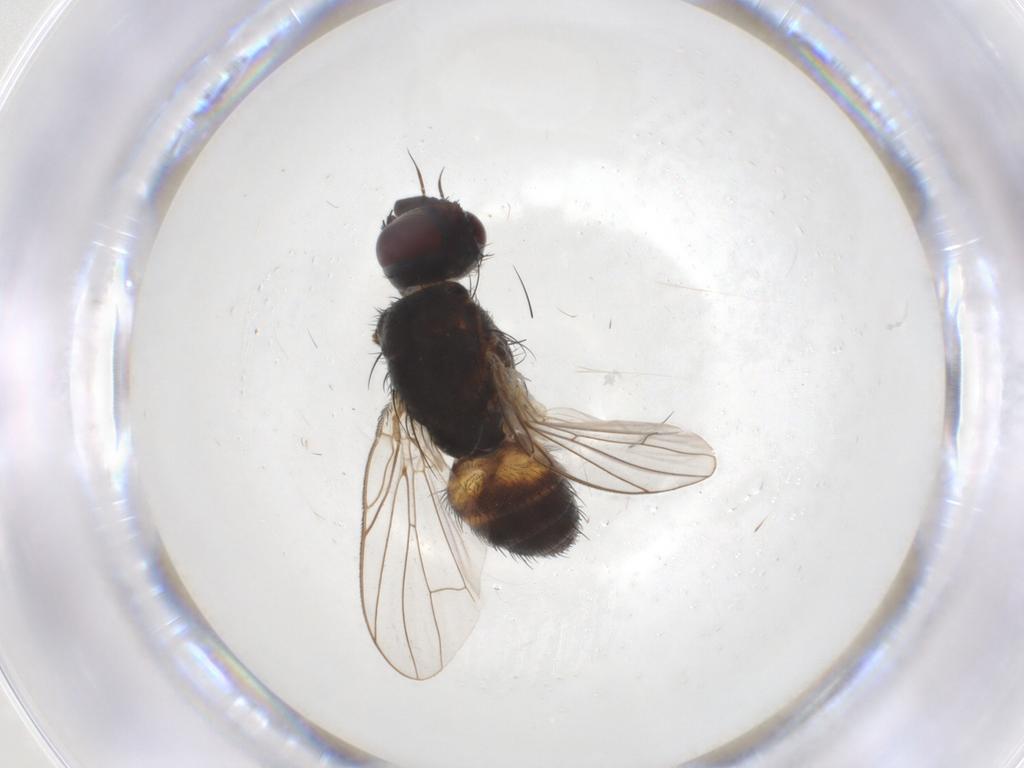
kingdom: Animalia
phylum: Arthropoda
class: Insecta
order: Diptera
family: Muscidae
